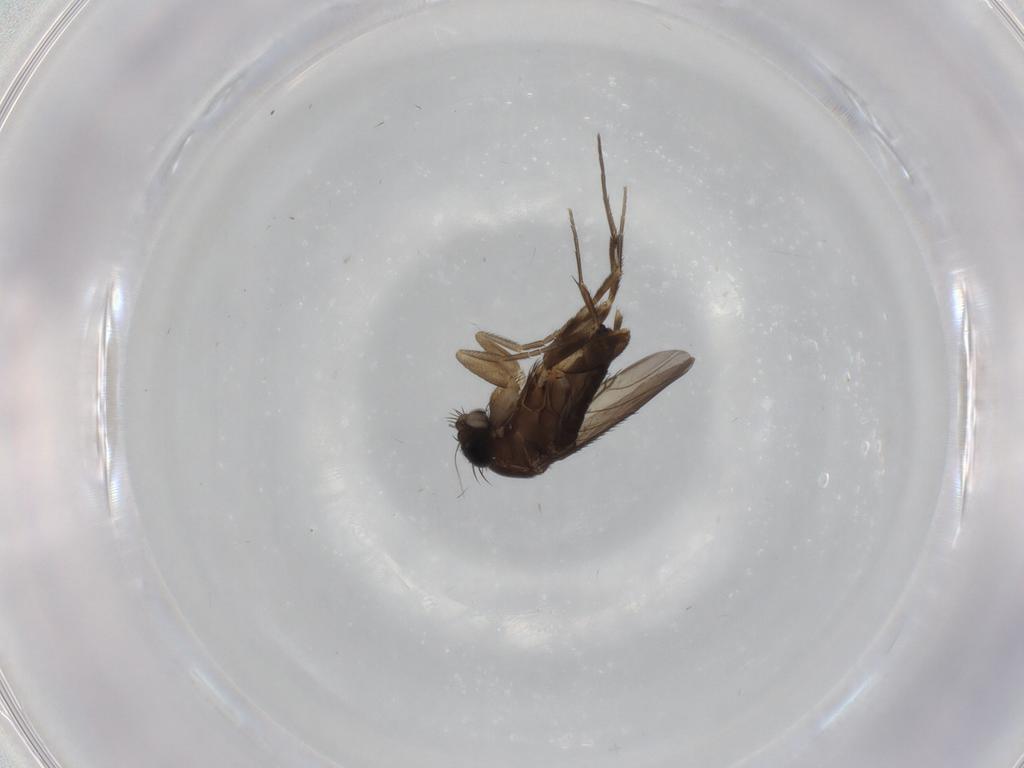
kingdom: Animalia
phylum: Arthropoda
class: Insecta
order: Diptera
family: Phoridae
